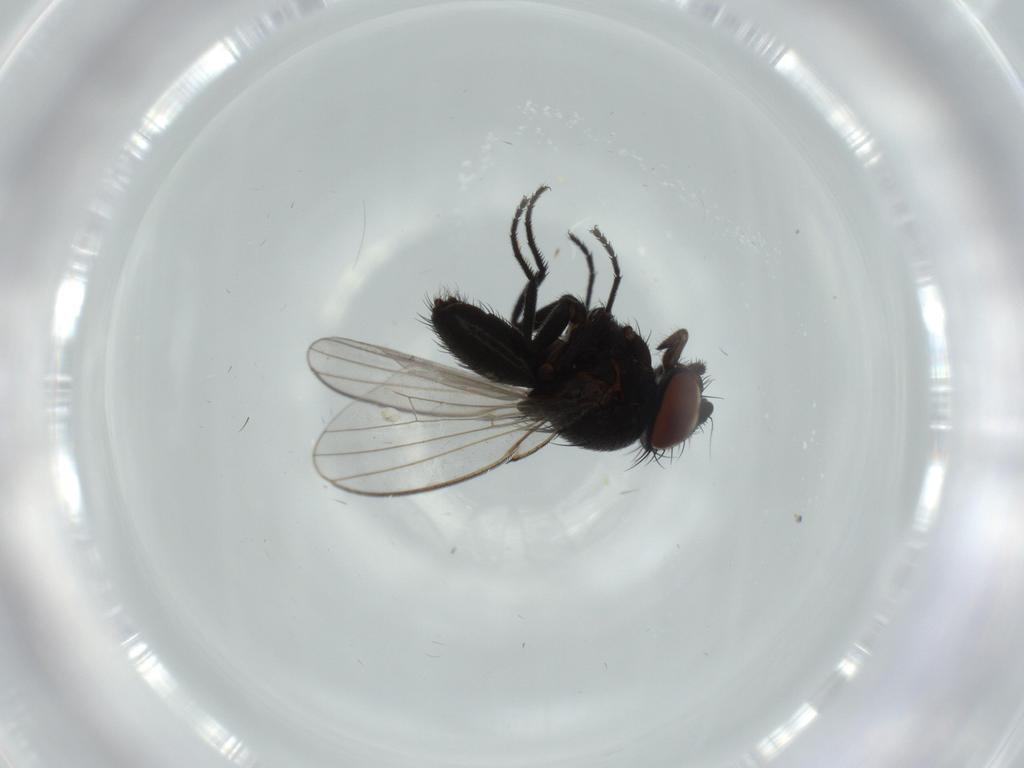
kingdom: Animalia
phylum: Arthropoda
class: Insecta
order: Diptera
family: Milichiidae
